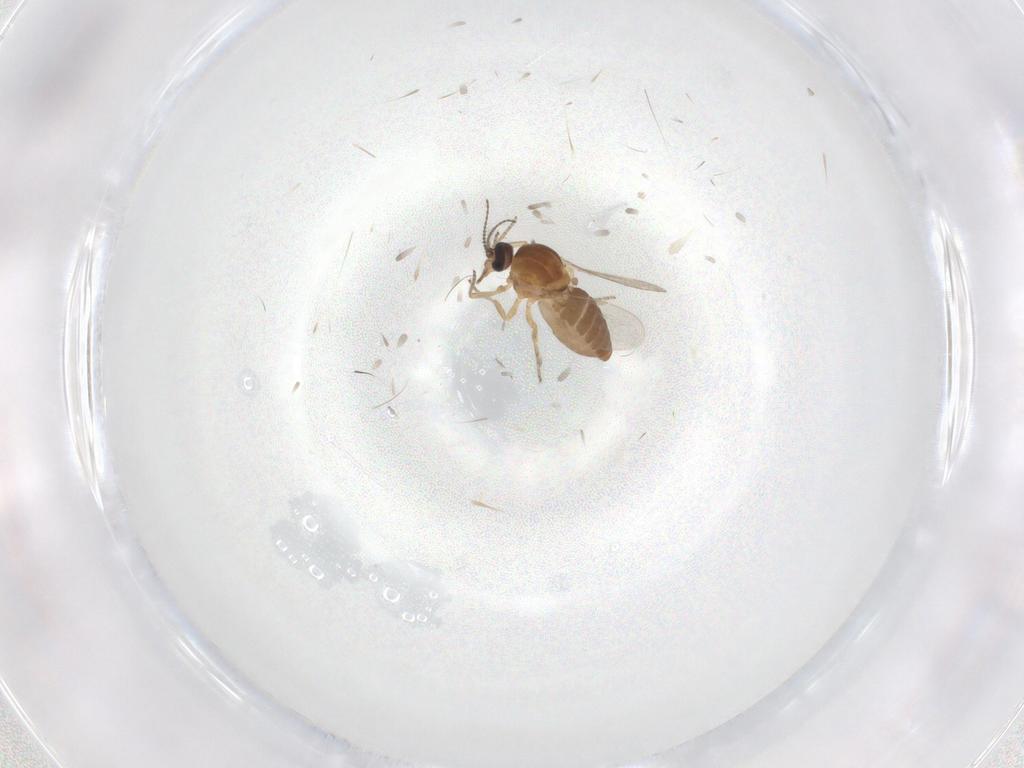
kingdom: Animalia
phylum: Arthropoda
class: Insecta
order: Diptera
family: Ceratopogonidae
